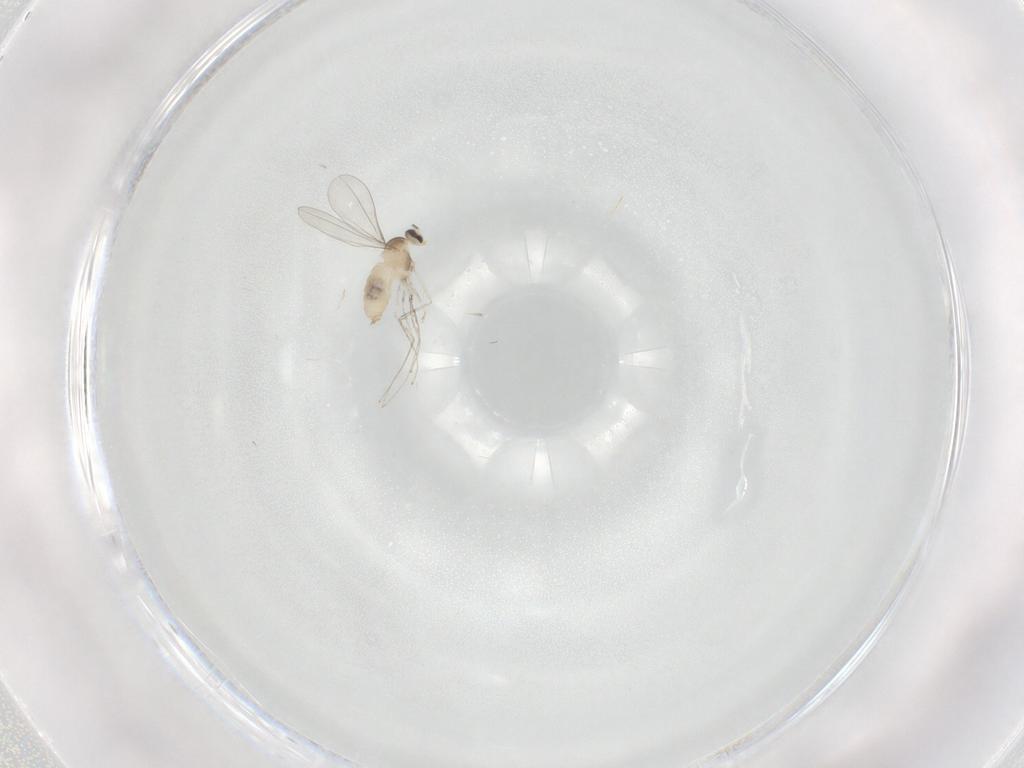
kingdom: Animalia
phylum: Arthropoda
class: Insecta
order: Diptera
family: Cecidomyiidae
